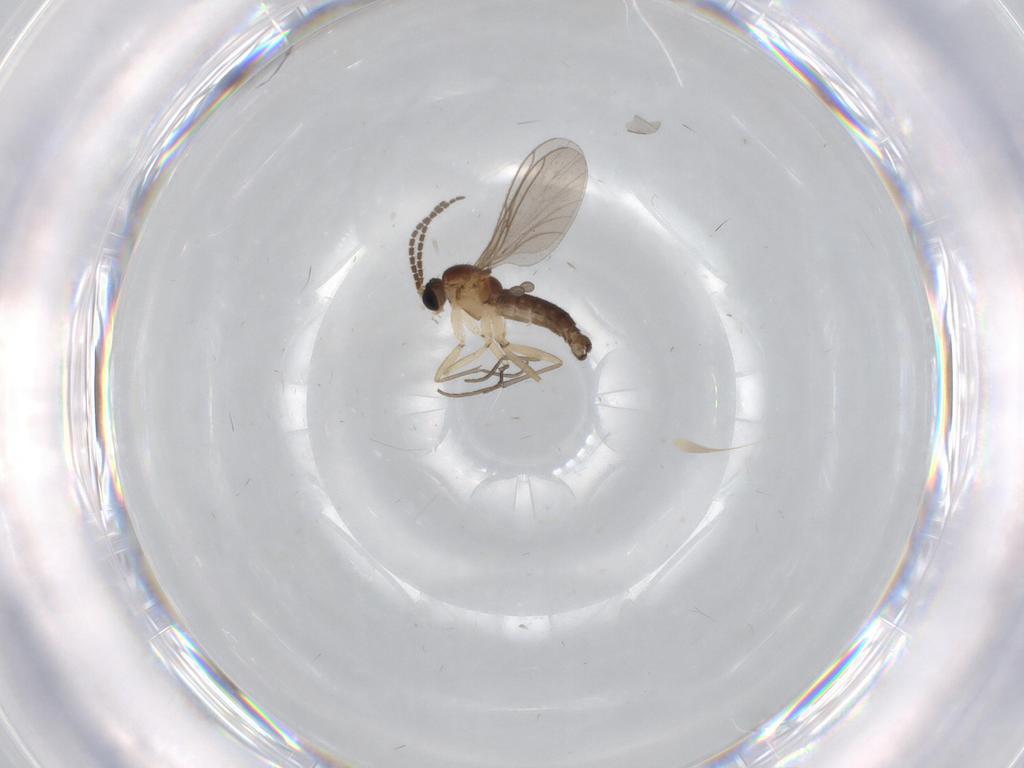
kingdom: Animalia
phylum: Arthropoda
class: Insecta
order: Diptera
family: Sciaridae
